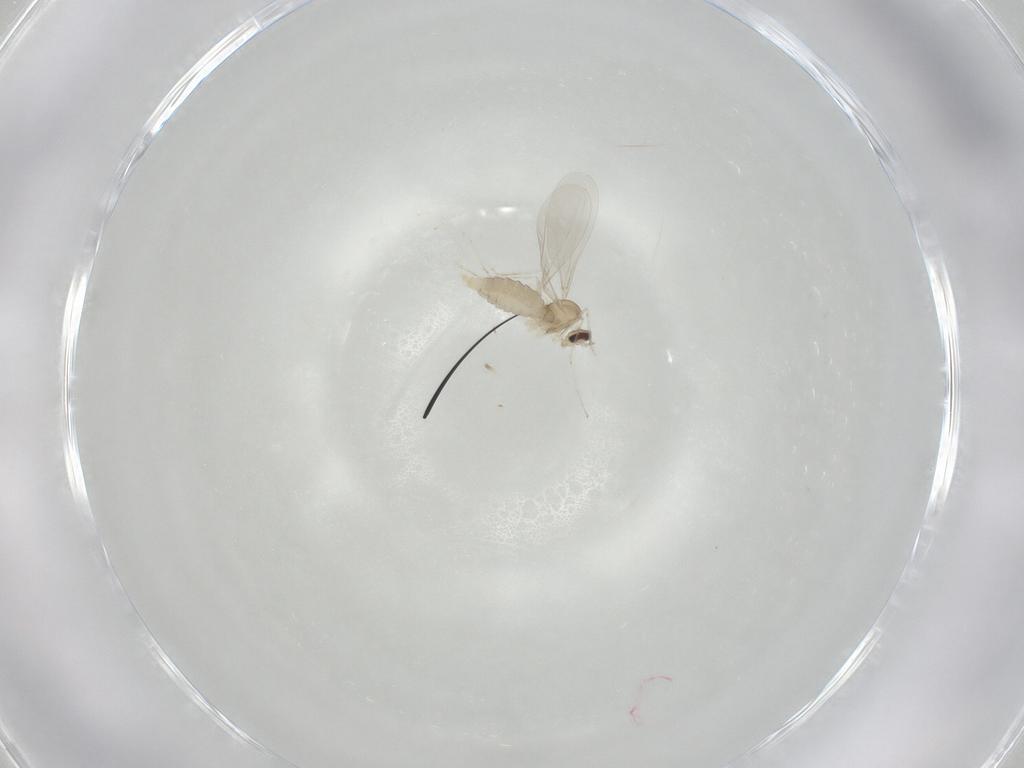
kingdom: Animalia
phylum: Arthropoda
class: Insecta
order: Diptera
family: Cecidomyiidae
